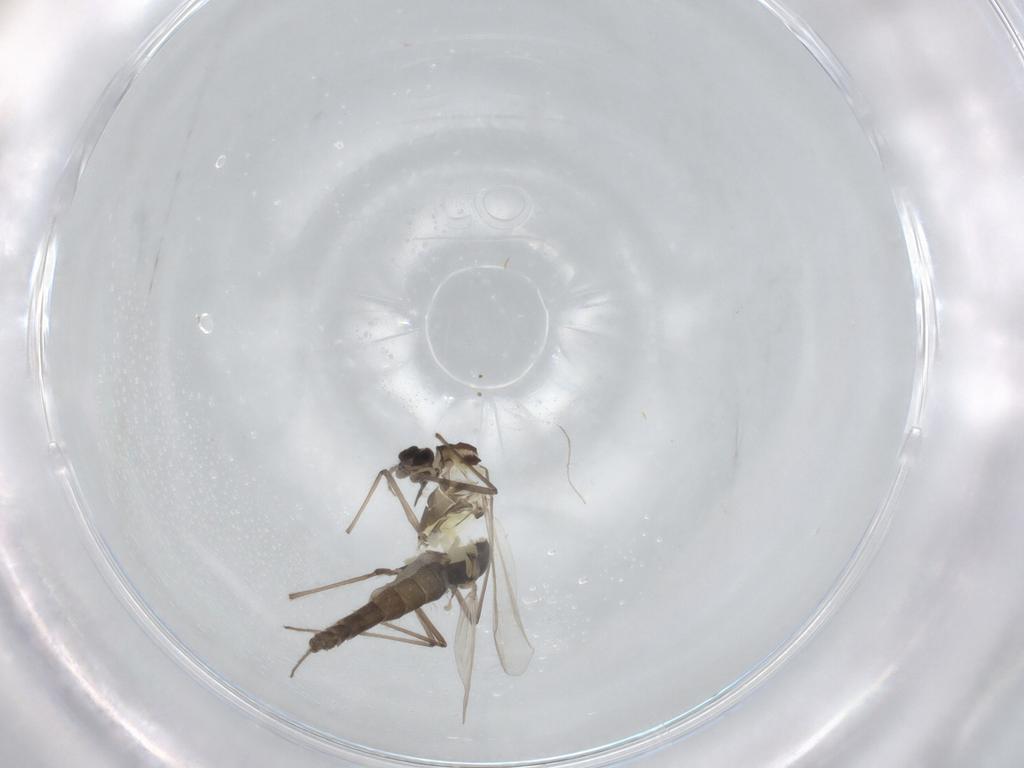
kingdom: Animalia
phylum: Arthropoda
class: Insecta
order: Diptera
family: Chironomidae
